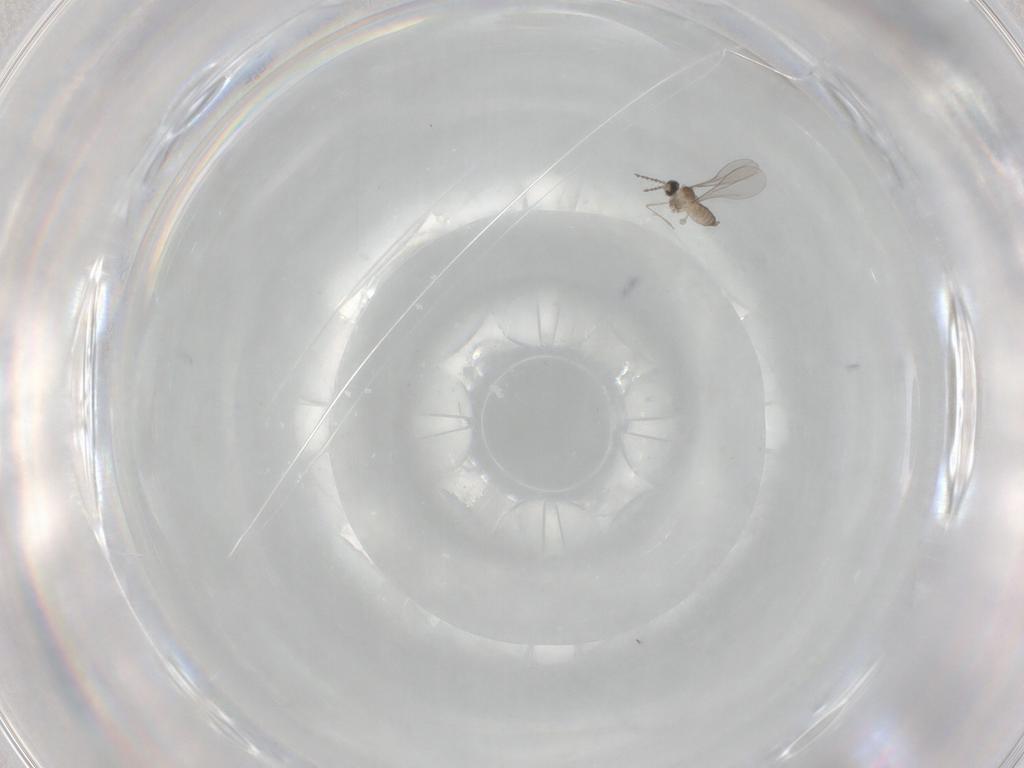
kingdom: Animalia
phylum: Arthropoda
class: Insecta
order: Diptera
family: Cecidomyiidae
